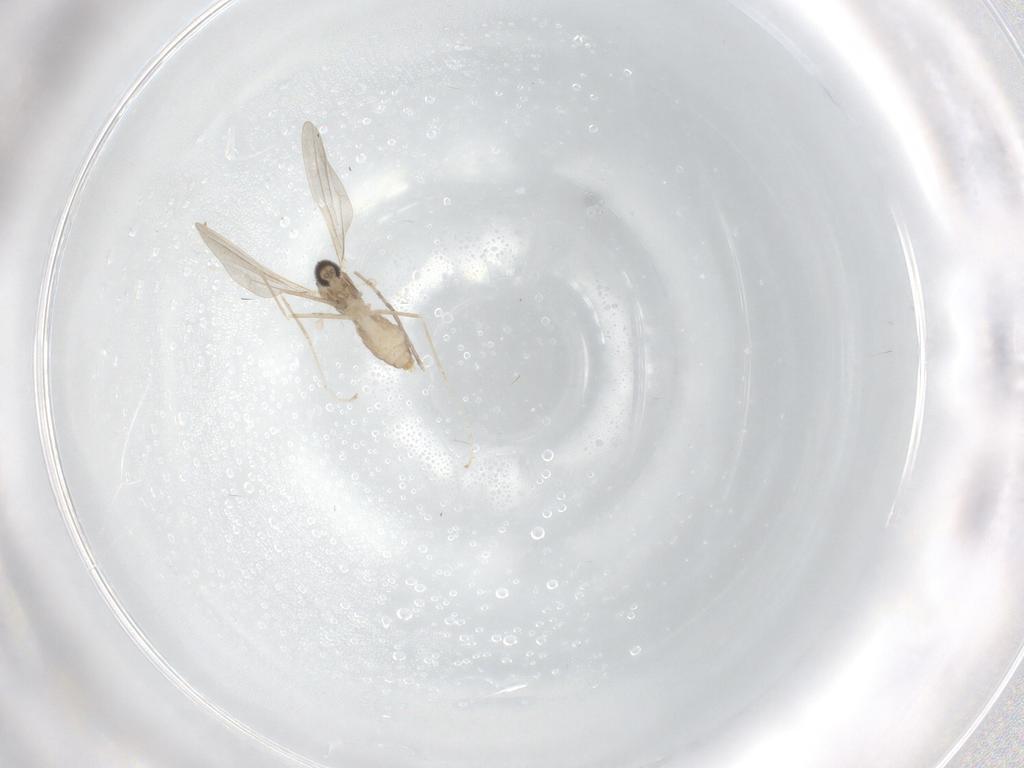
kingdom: Animalia
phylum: Arthropoda
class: Insecta
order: Diptera
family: Cecidomyiidae
